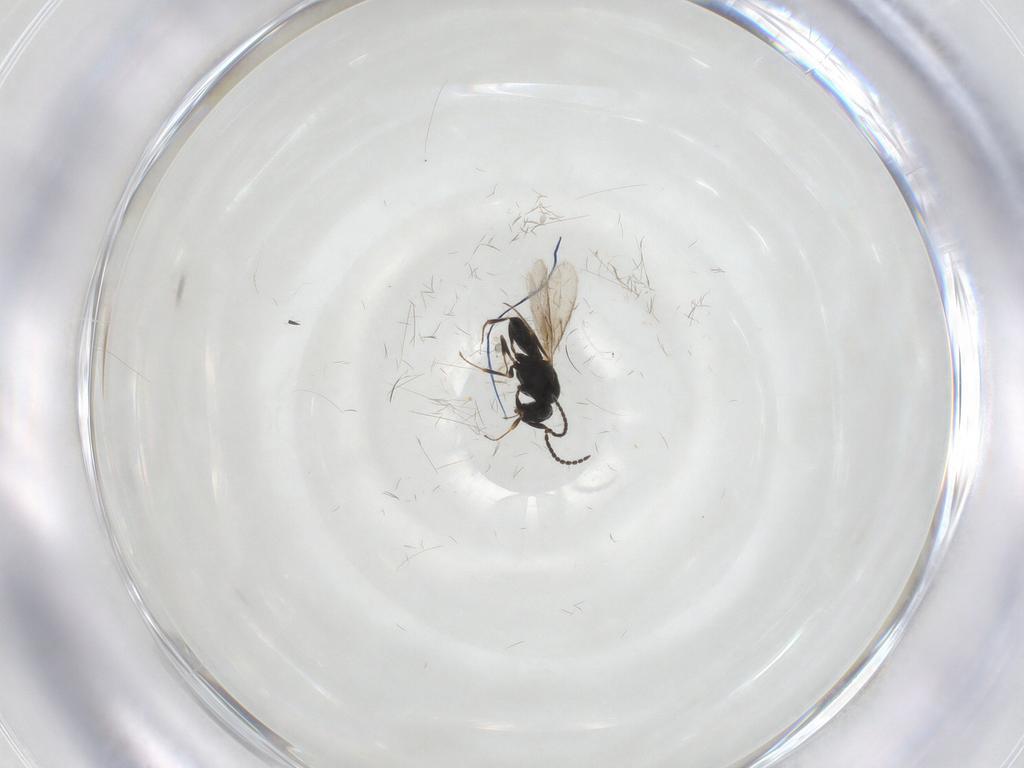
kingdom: Animalia
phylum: Arthropoda
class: Insecta
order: Hymenoptera
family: Scelionidae
